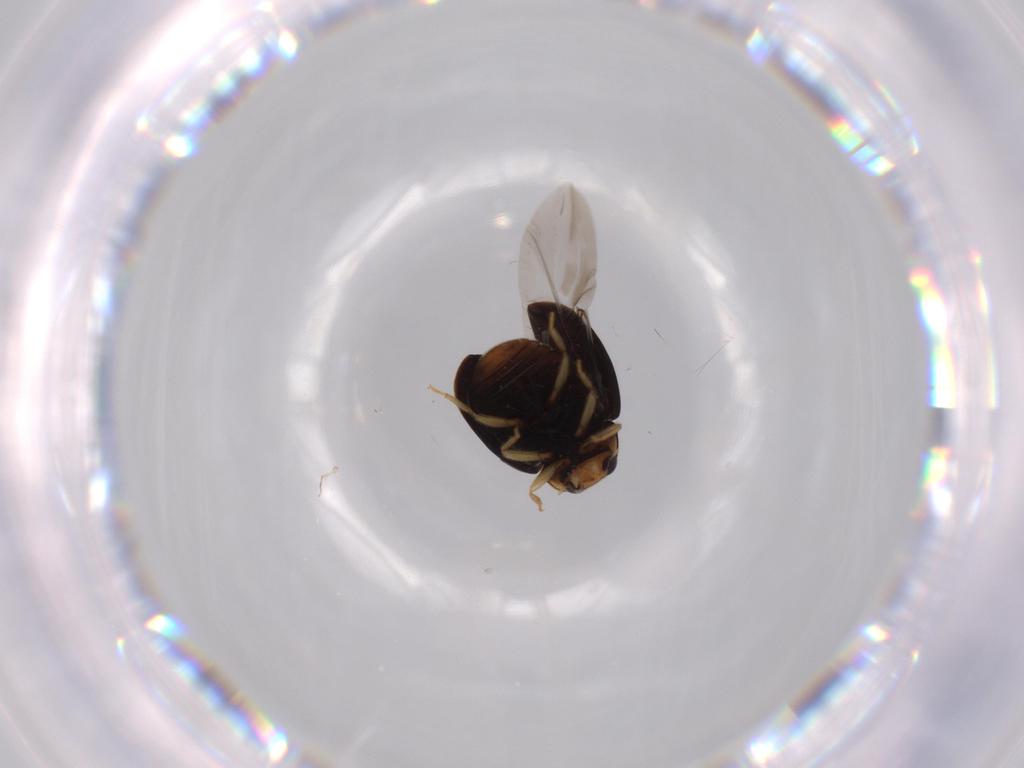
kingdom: Animalia
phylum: Arthropoda
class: Insecta
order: Coleoptera
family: Coccinellidae
